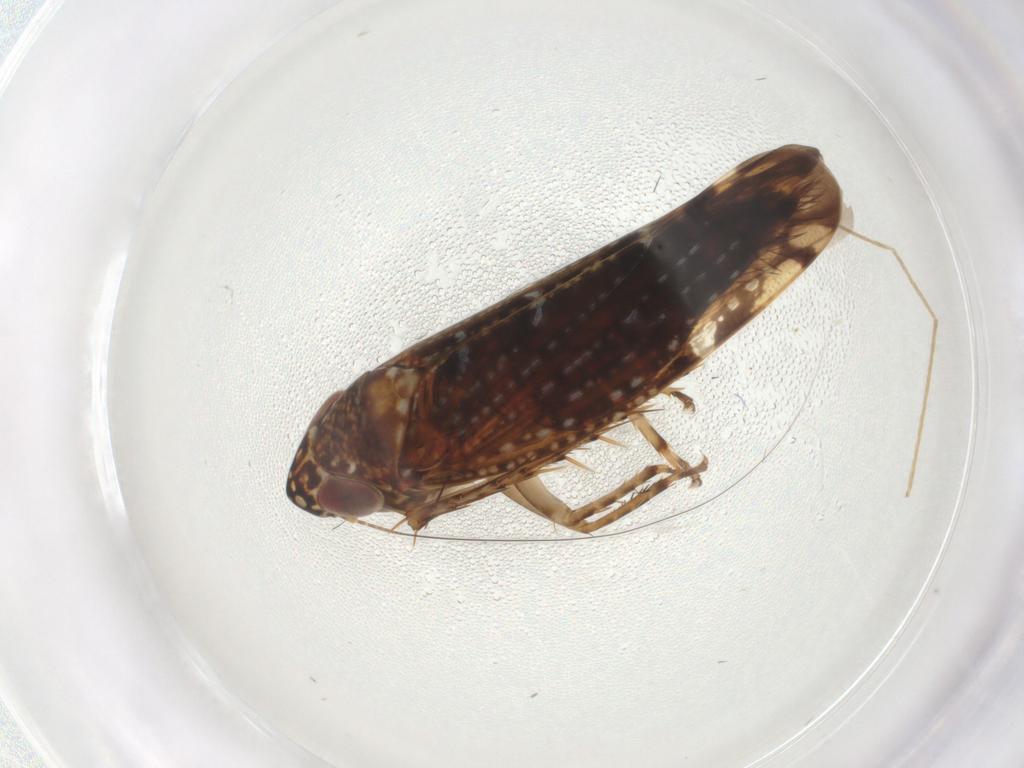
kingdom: Animalia
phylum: Arthropoda
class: Insecta
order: Hemiptera
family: Cicadellidae
